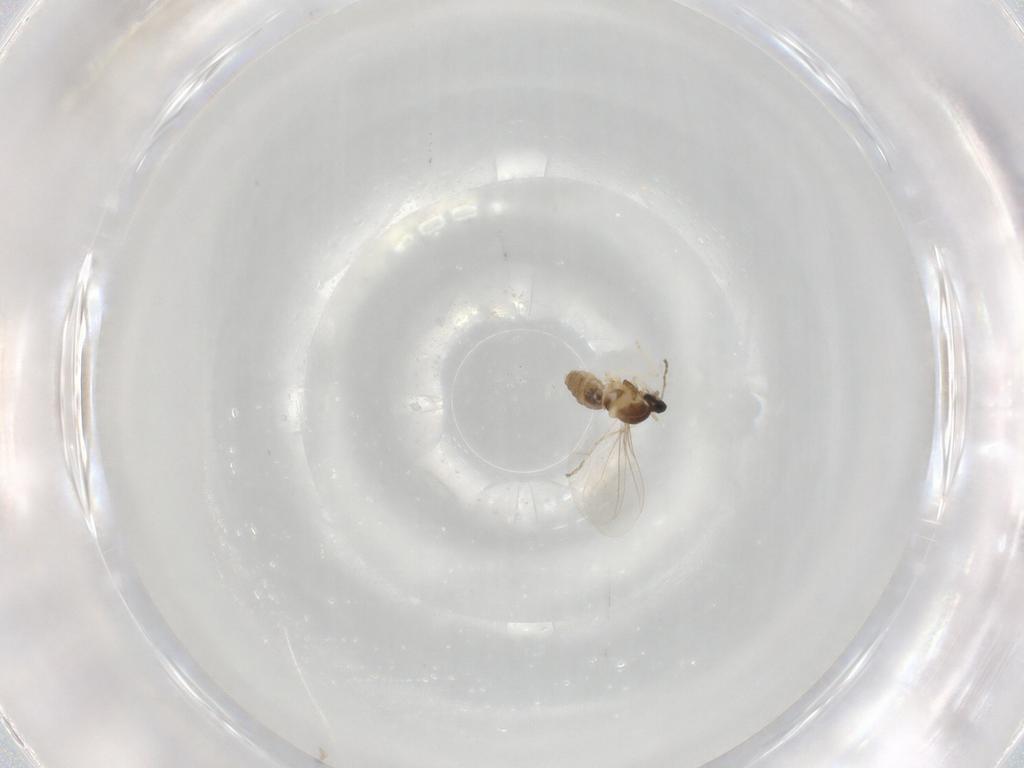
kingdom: Animalia
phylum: Arthropoda
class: Insecta
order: Diptera
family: Cecidomyiidae
